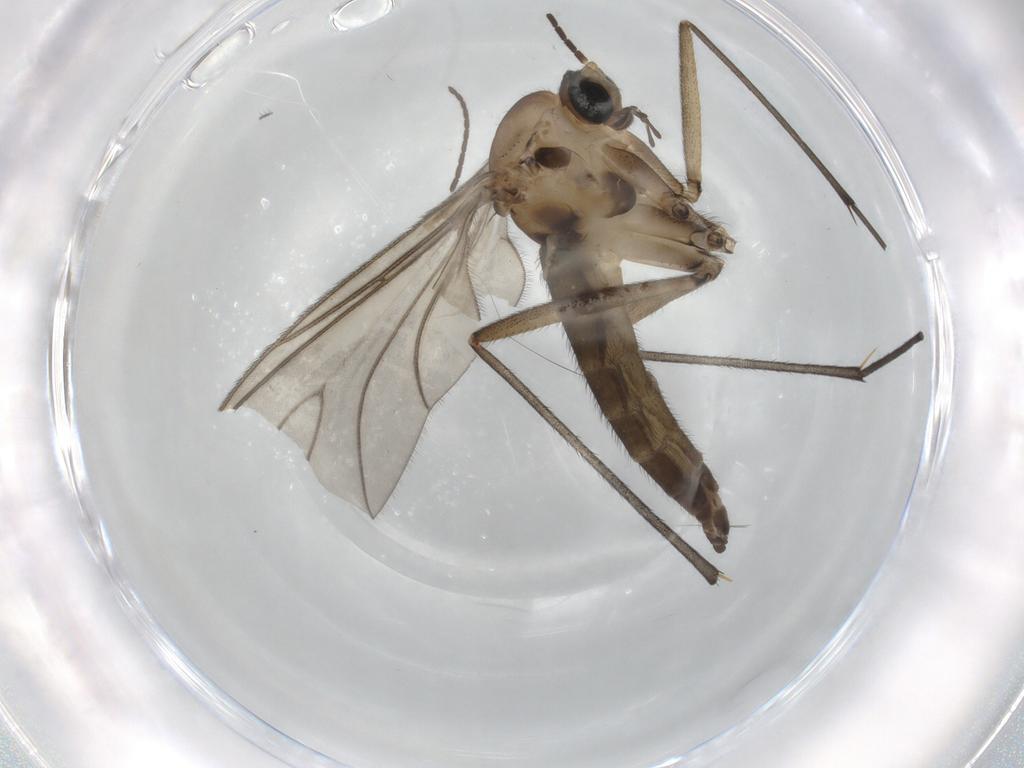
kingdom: Animalia
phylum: Arthropoda
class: Insecta
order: Diptera
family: Sciaridae
